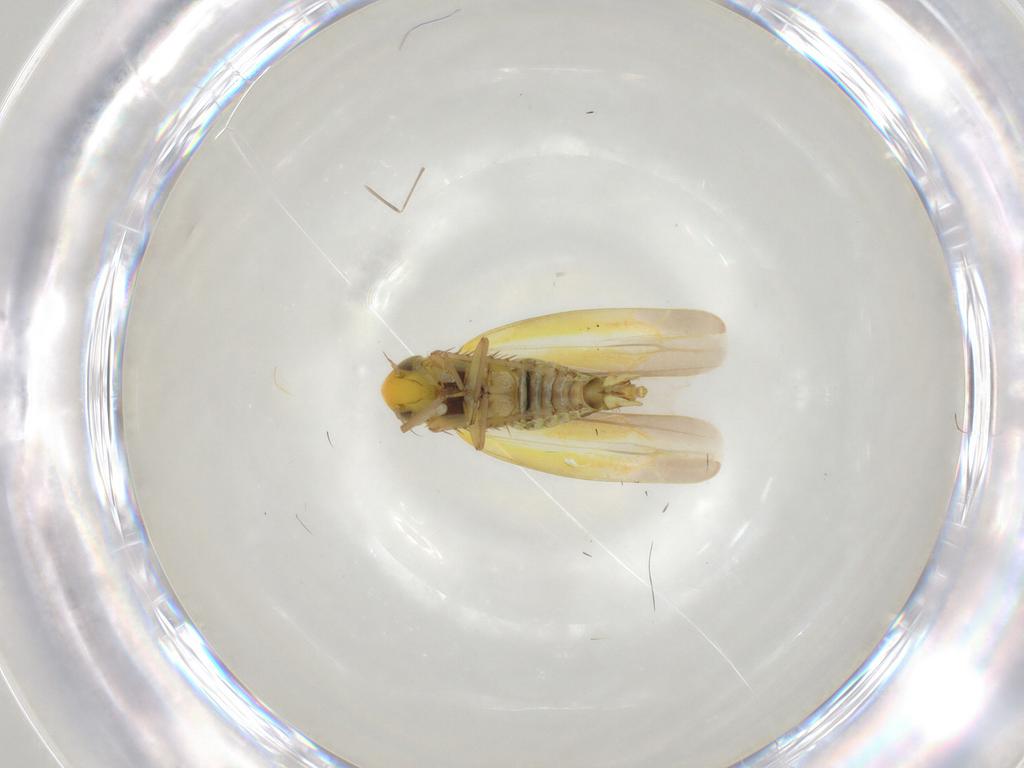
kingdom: Animalia
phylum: Arthropoda
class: Insecta
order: Hemiptera
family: Cicadellidae
